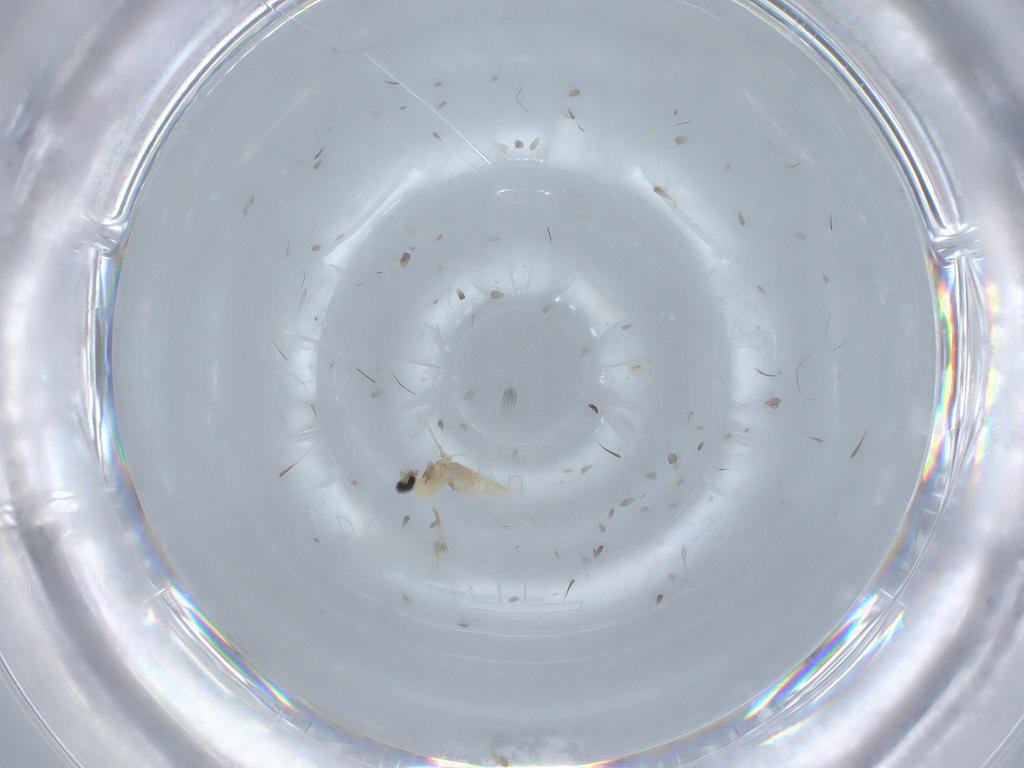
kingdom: Animalia
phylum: Arthropoda
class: Insecta
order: Diptera
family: Cecidomyiidae
